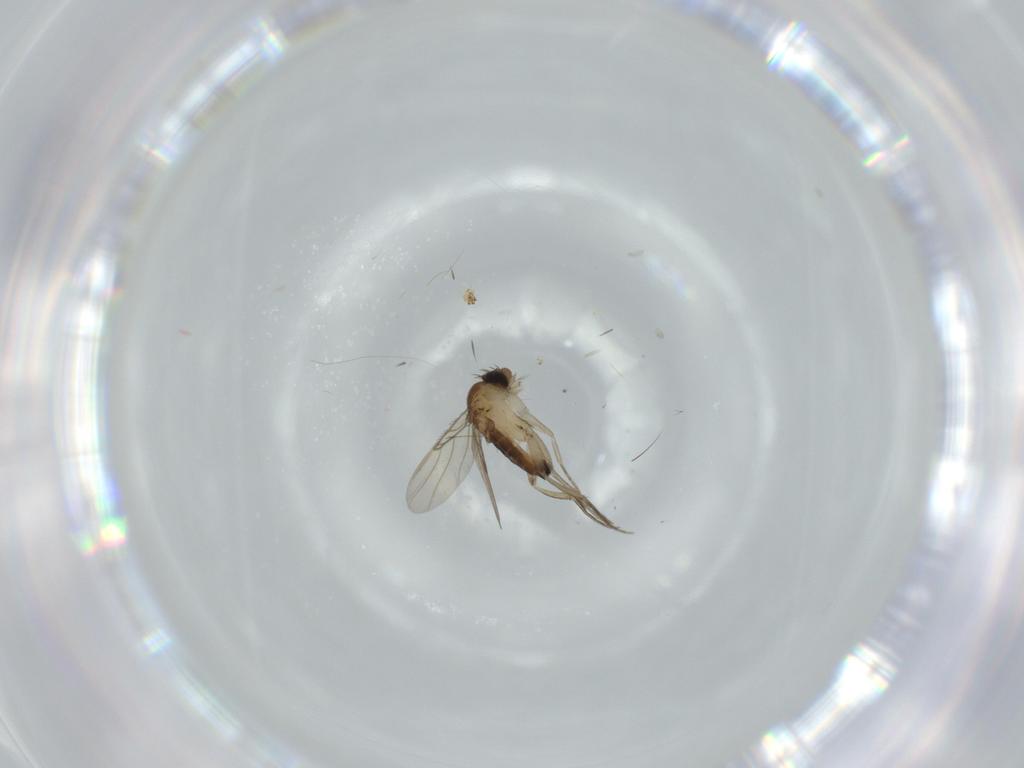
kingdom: Animalia
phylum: Arthropoda
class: Insecta
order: Diptera
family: Phoridae
